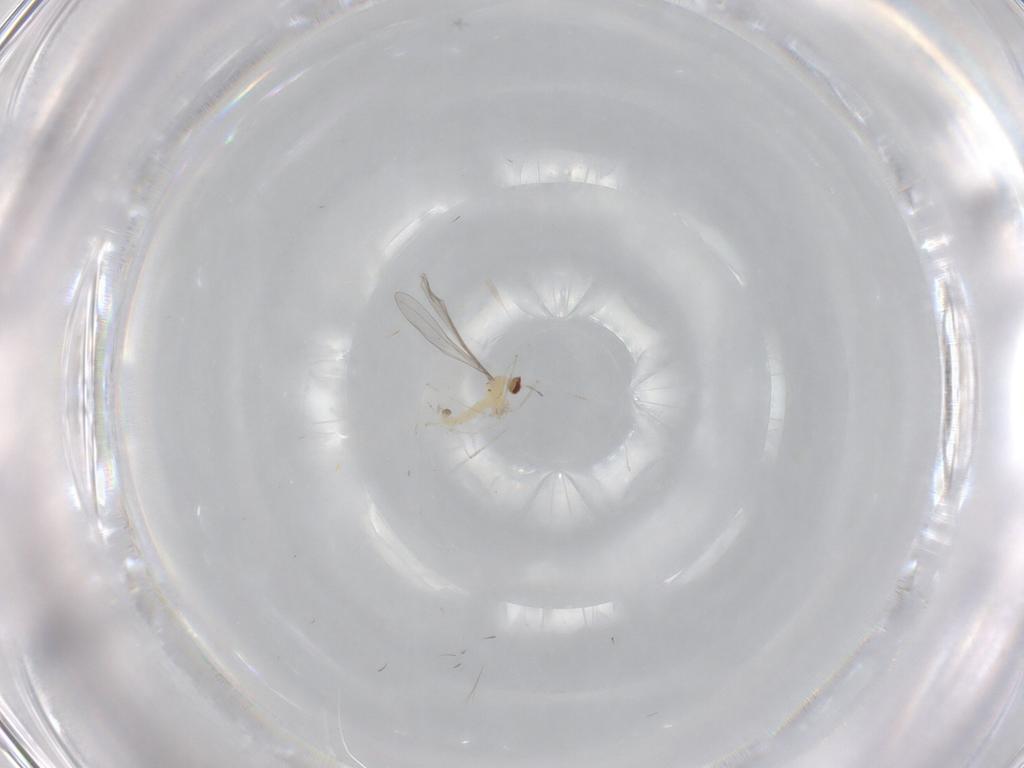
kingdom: Animalia
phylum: Arthropoda
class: Insecta
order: Diptera
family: Cecidomyiidae
